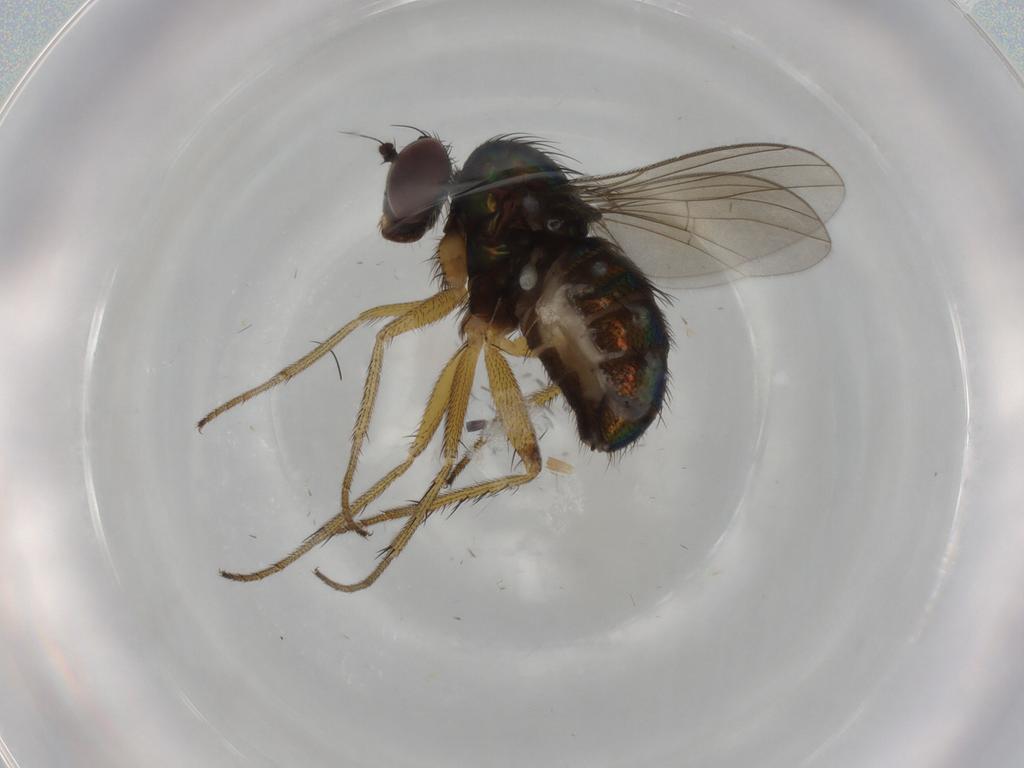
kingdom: Animalia
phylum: Arthropoda
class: Insecta
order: Diptera
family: Dolichopodidae
